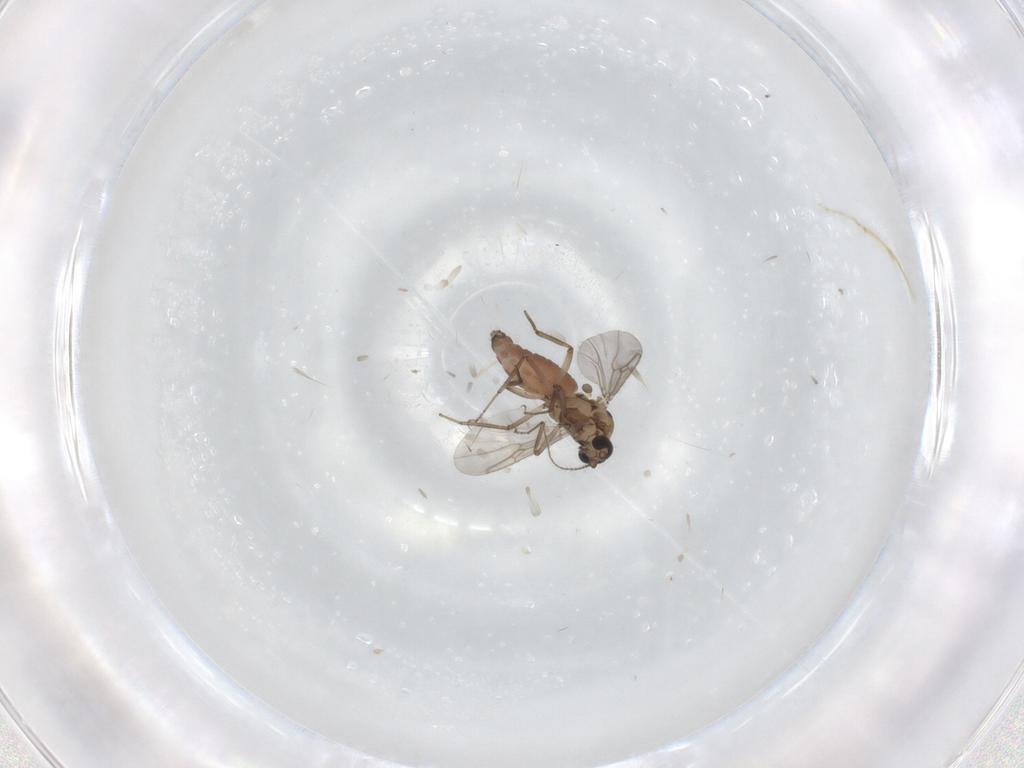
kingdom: Animalia
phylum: Arthropoda
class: Insecta
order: Diptera
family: Ceratopogonidae
